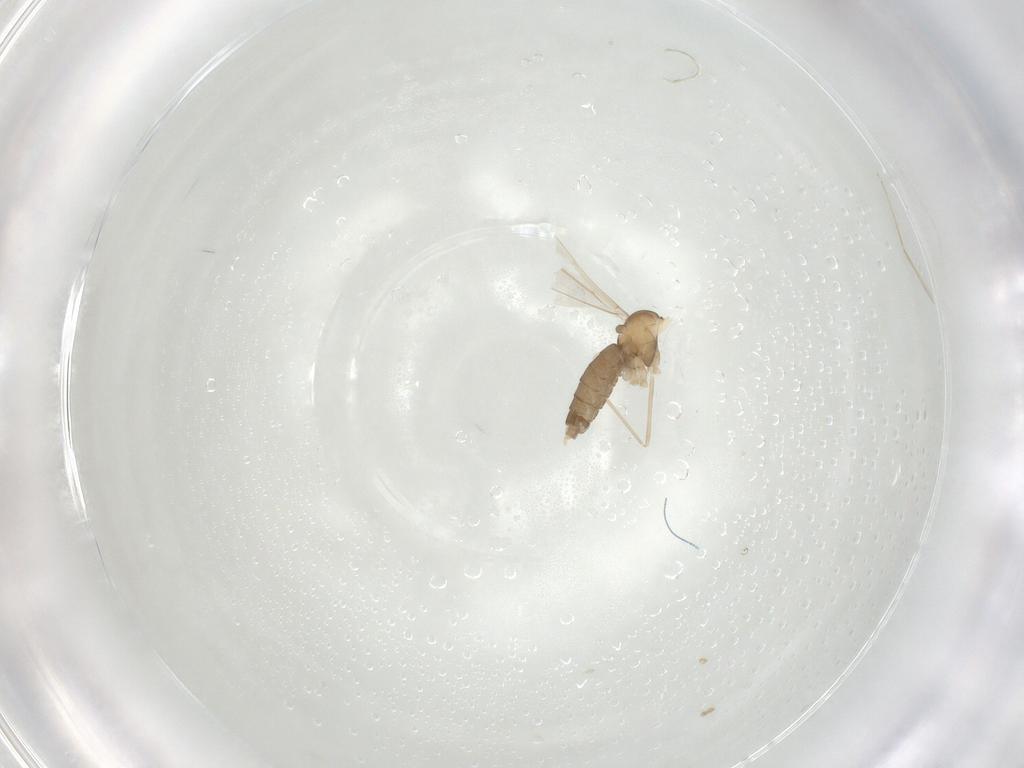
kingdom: Animalia
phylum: Arthropoda
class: Insecta
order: Diptera
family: Cecidomyiidae
